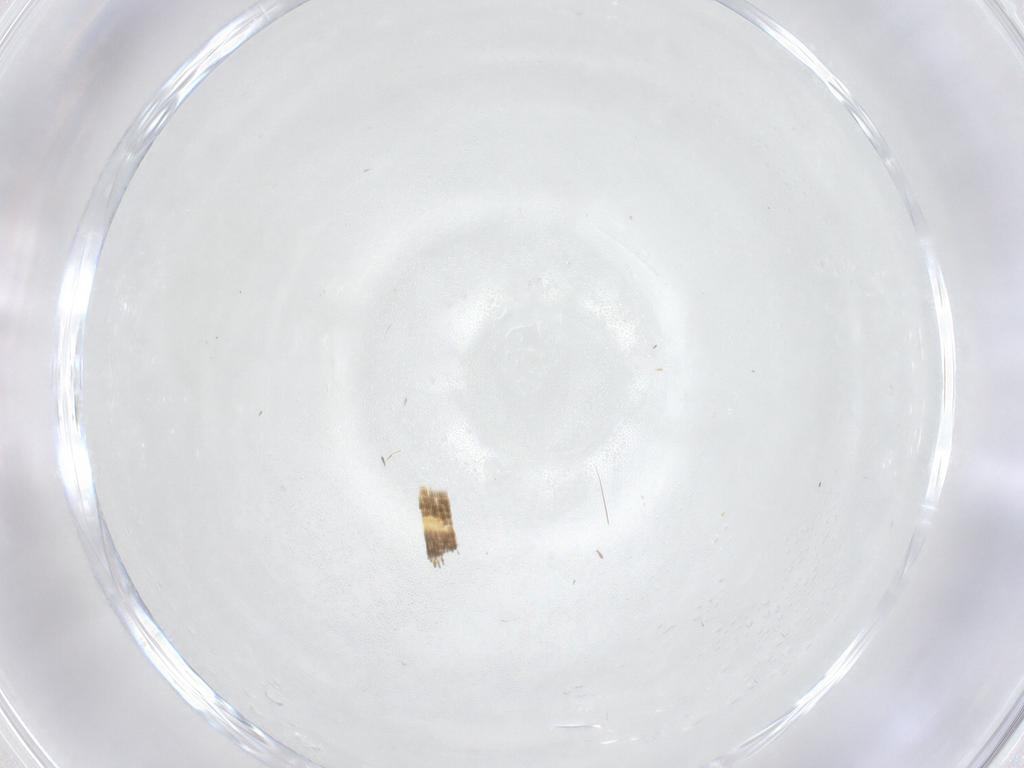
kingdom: Animalia
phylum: Arthropoda
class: Insecta
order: Lepidoptera
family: Tortricidae
